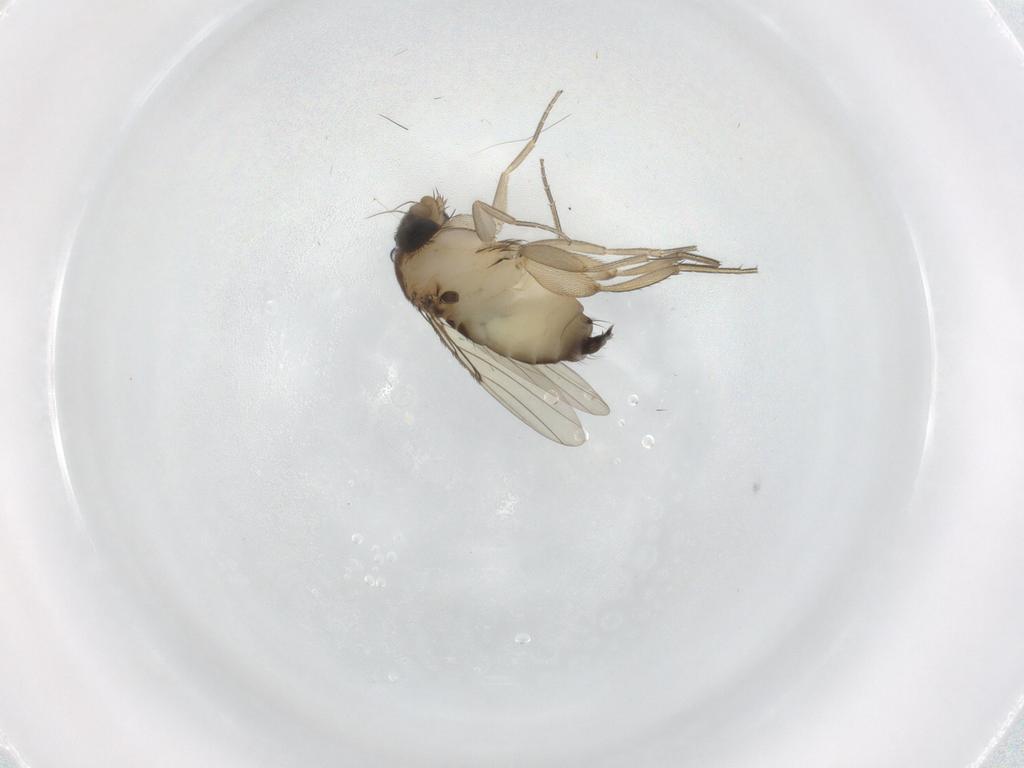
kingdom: Animalia
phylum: Arthropoda
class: Insecta
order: Diptera
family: Phoridae
